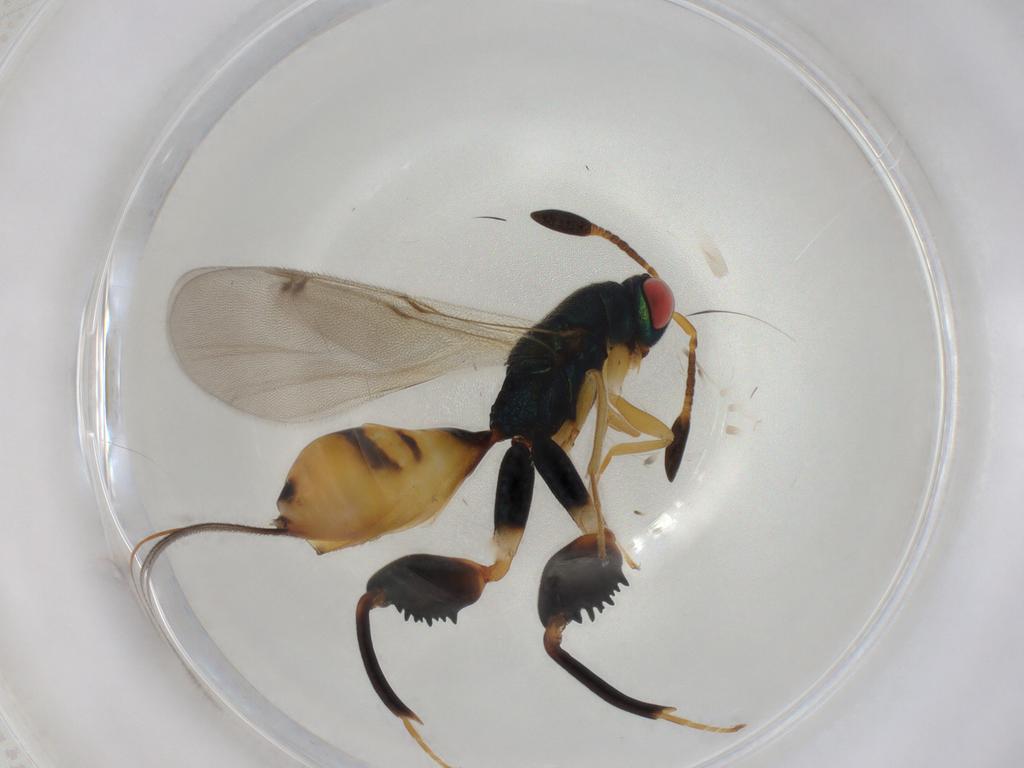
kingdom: Animalia
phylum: Arthropoda
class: Insecta
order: Hymenoptera
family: Torymidae
